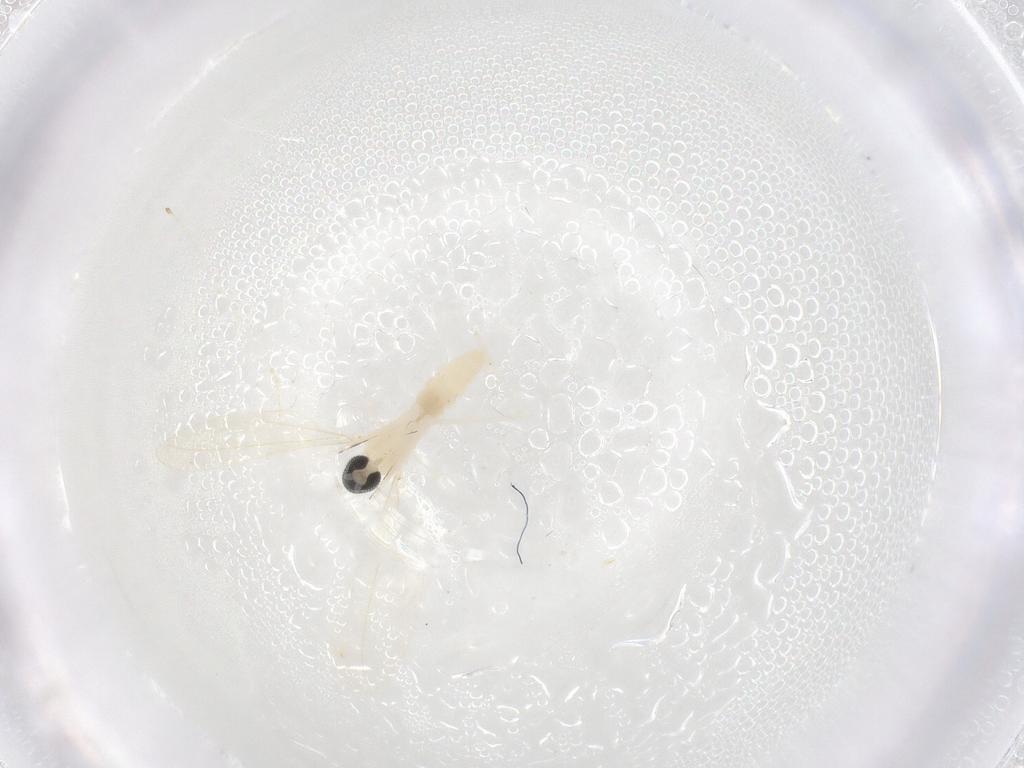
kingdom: Animalia
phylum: Arthropoda
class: Insecta
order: Diptera
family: Cecidomyiidae
